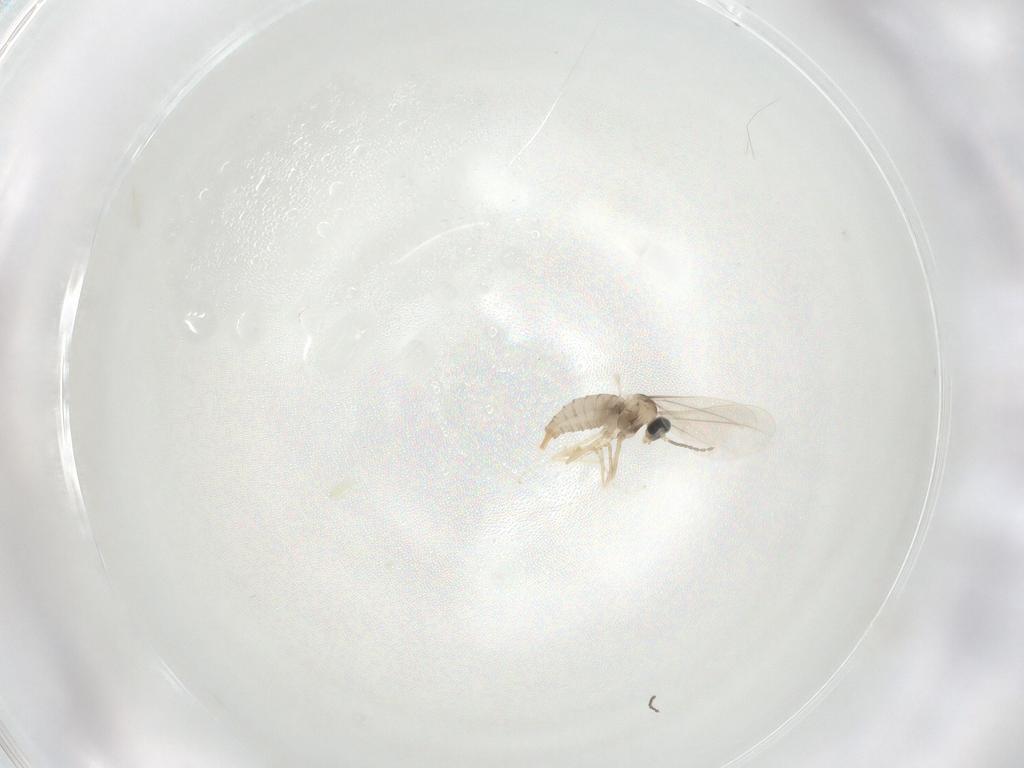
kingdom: Animalia
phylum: Arthropoda
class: Insecta
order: Diptera
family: Cecidomyiidae
